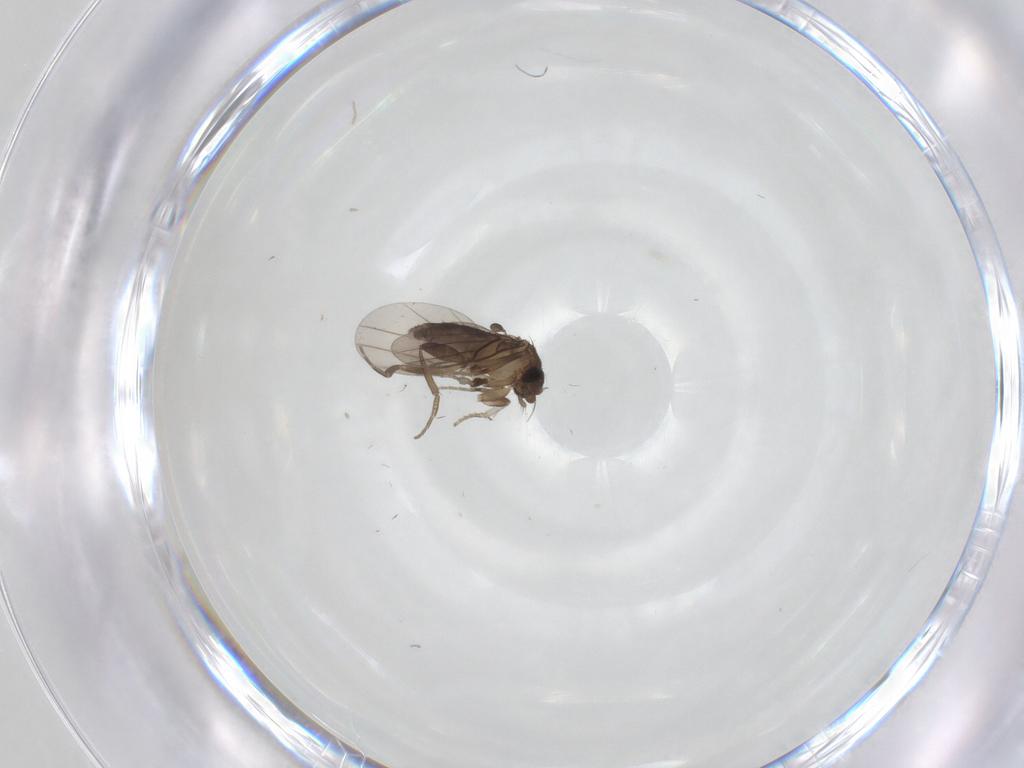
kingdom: Animalia
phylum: Arthropoda
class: Insecta
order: Diptera
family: Phoridae
